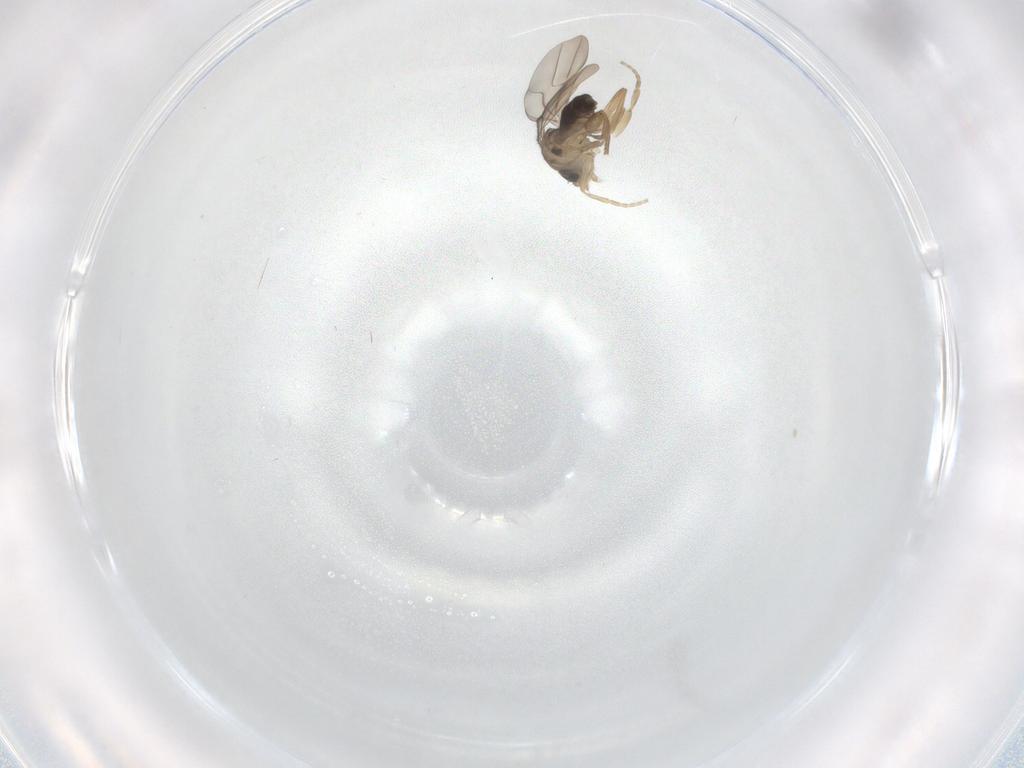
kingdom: Animalia
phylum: Arthropoda
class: Insecta
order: Diptera
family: Phoridae
